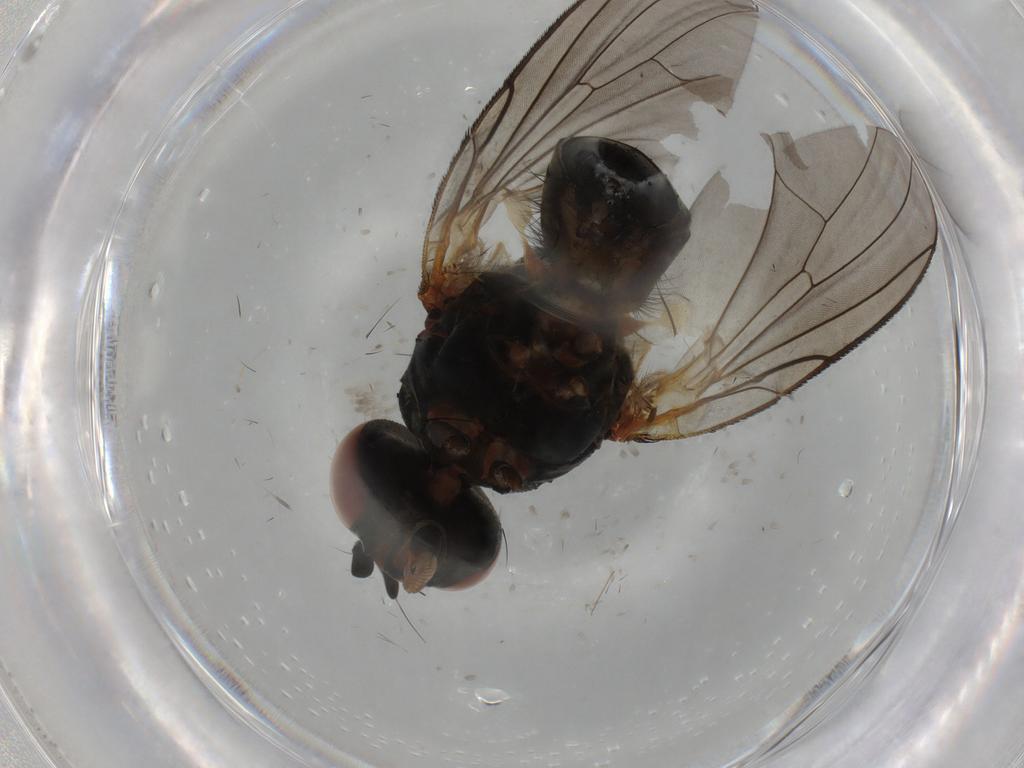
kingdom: Animalia
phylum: Arthropoda
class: Insecta
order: Diptera
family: Anthomyiidae
